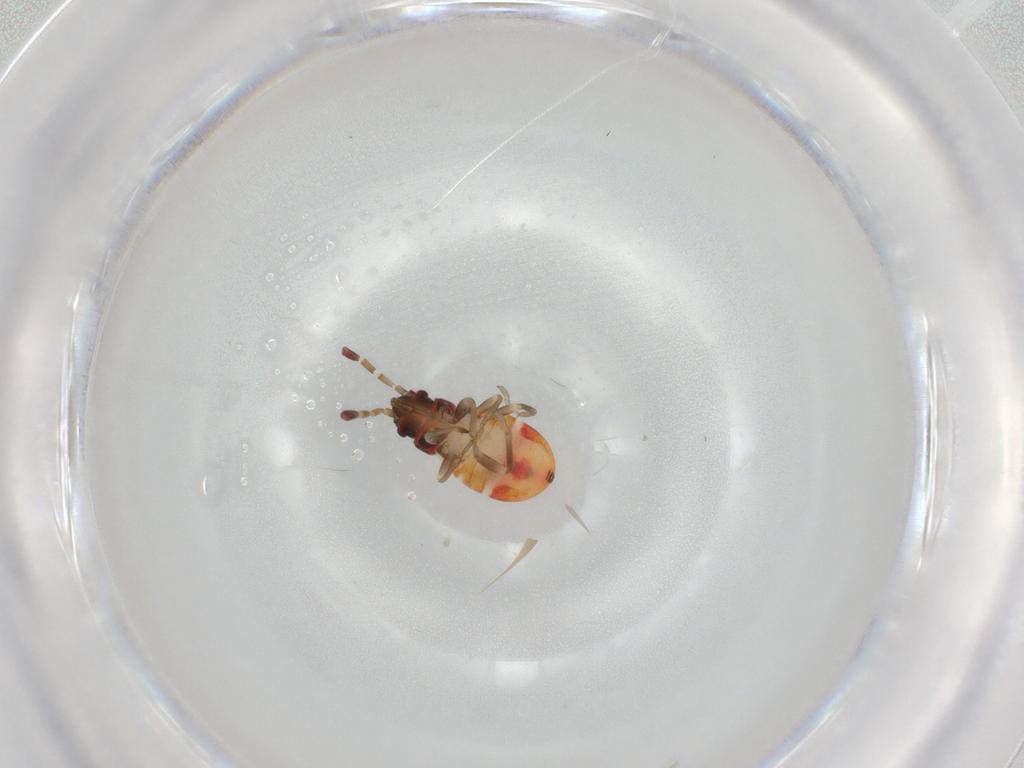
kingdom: Animalia
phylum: Arthropoda
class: Insecta
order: Hemiptera
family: Rhyparochromidae
